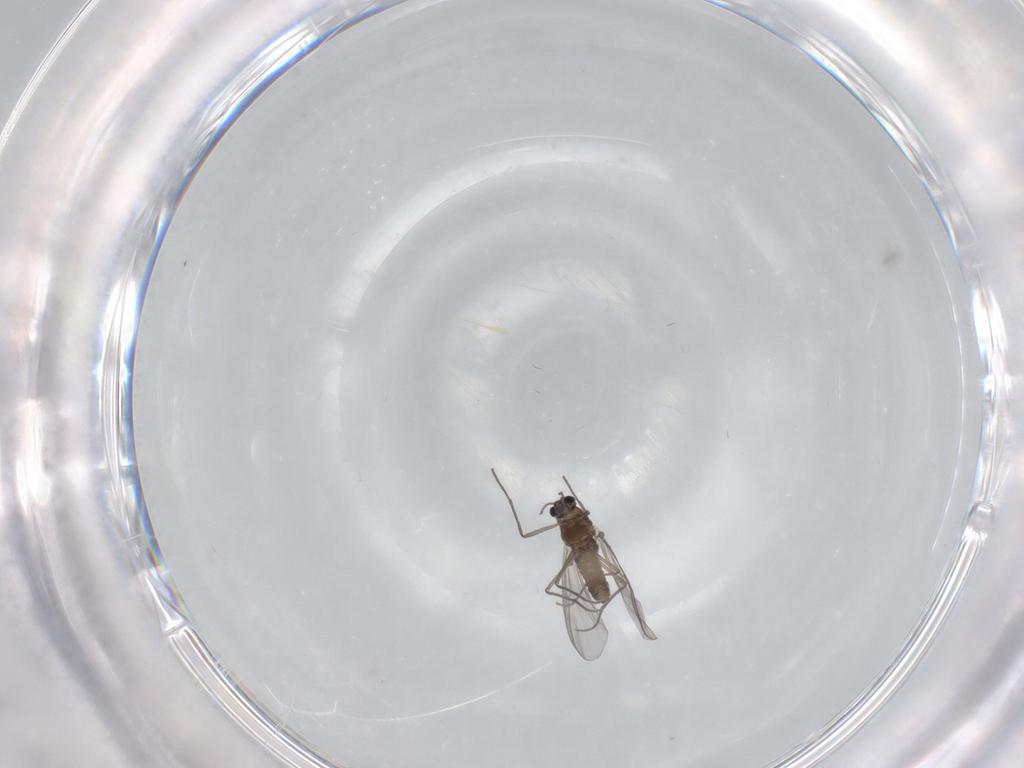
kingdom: Animalia
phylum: Arthropoda
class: Insecta
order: Diptera
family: Chironomidae
